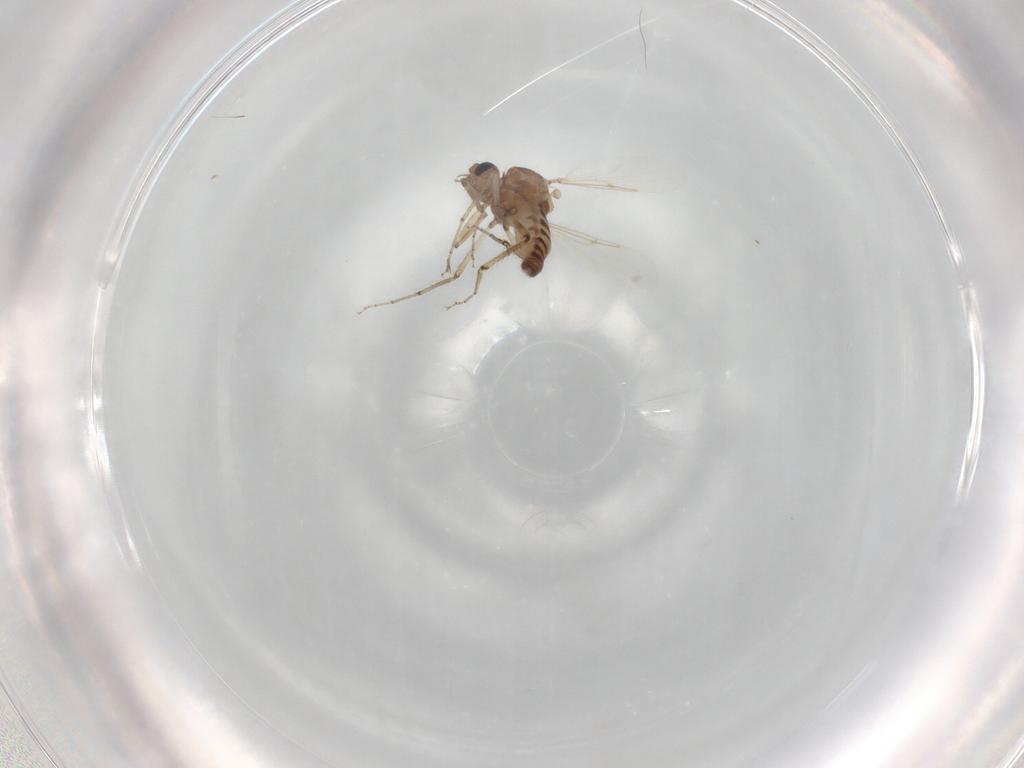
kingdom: Animalia
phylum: Arthropoda
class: Insecta
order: Diptera
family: Ceratopogonidae
